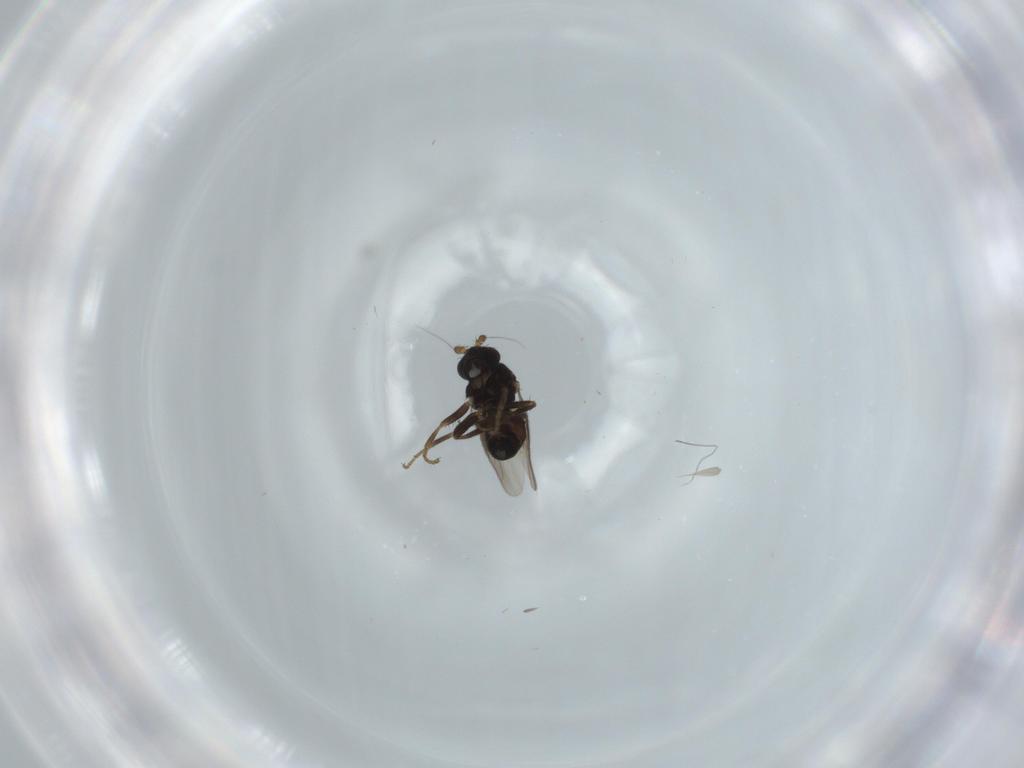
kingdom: Animalia
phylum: Arthropoda
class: Insecta
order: Diptera
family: Sphaeroceridae
